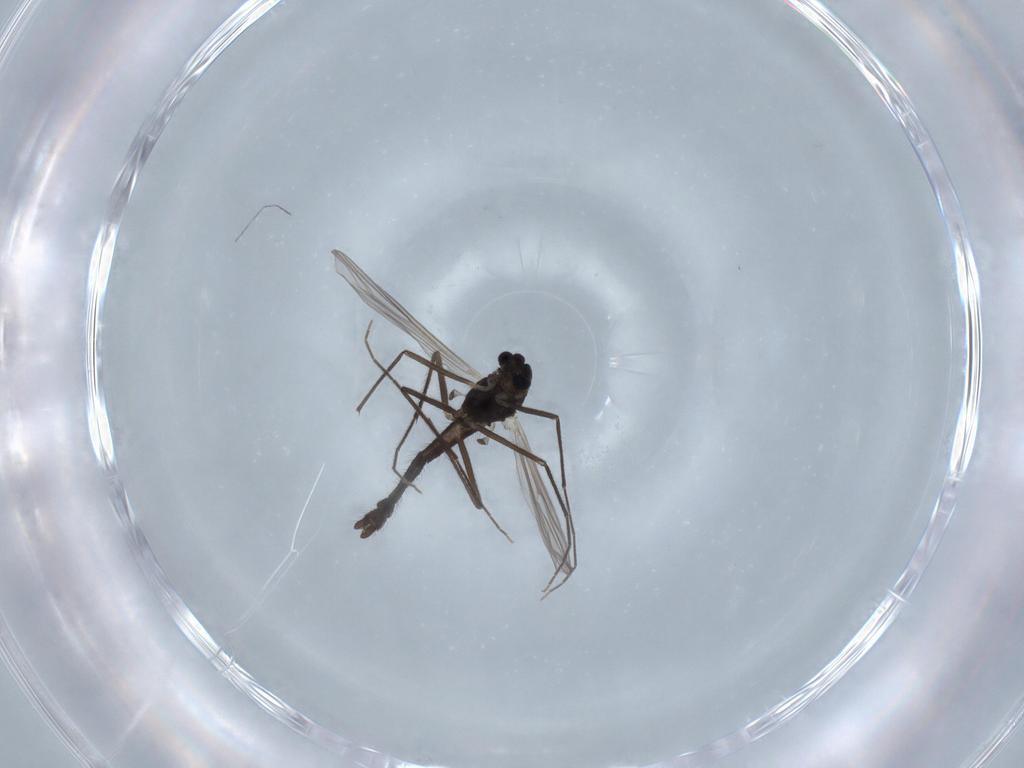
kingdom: Animalia
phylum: Arthropoda
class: Insecta
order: Diptera
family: Chironomidae
